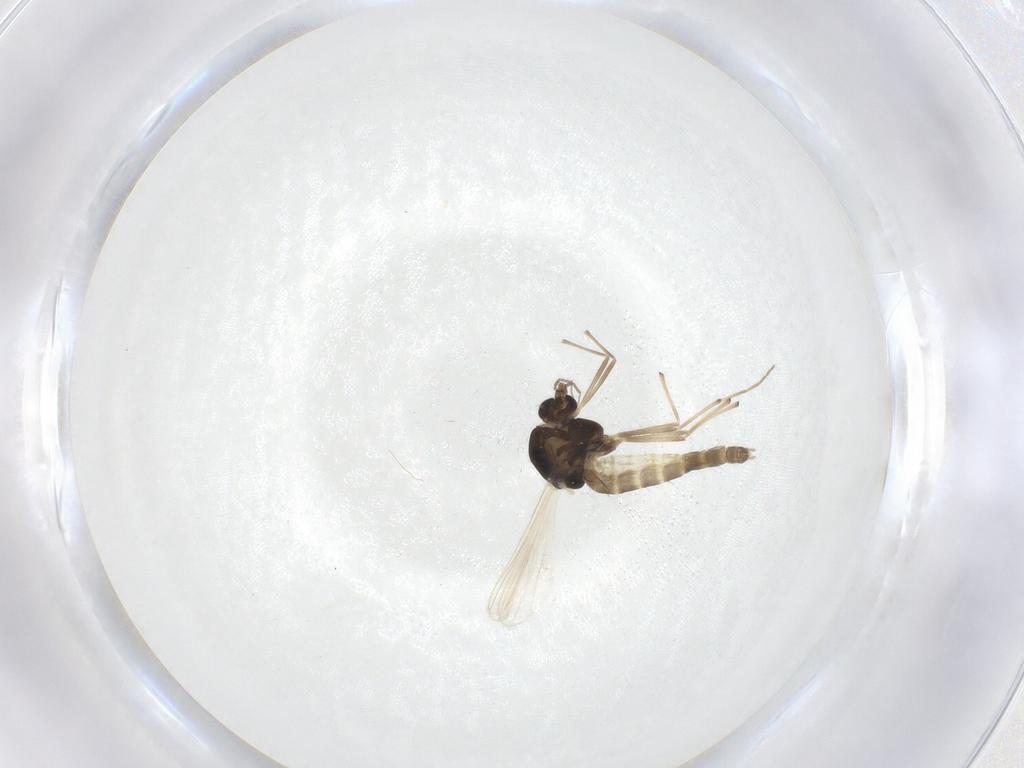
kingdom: Animalia
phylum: Arthropoda
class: Insecta
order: Diptera
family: Chironomidae
